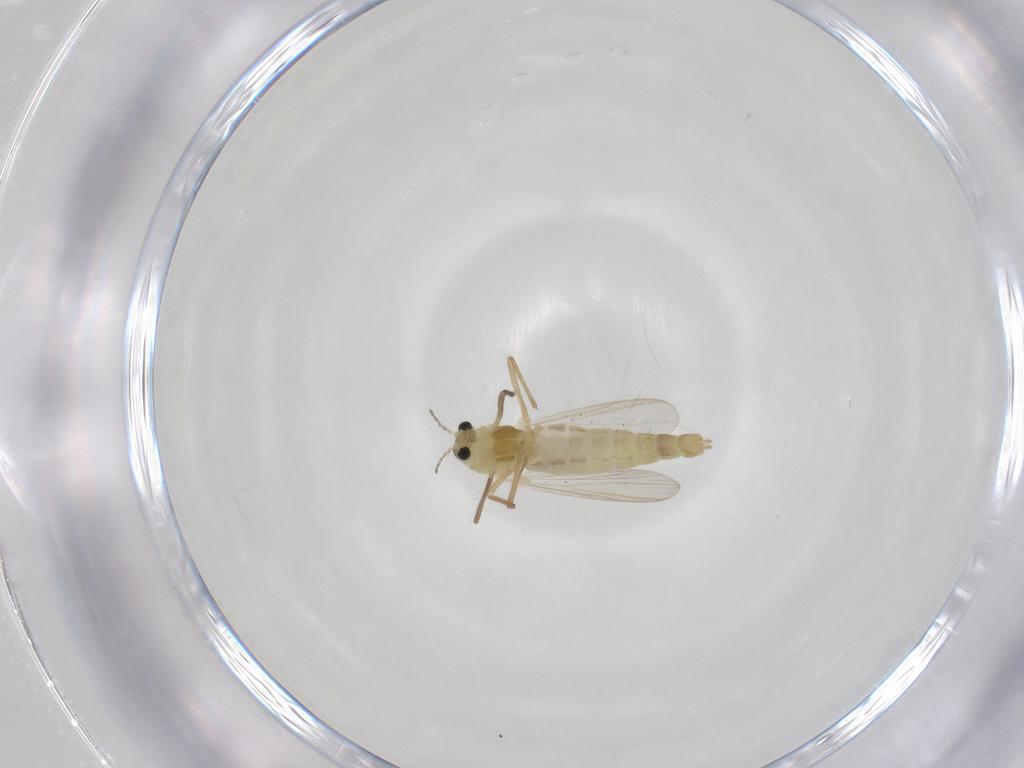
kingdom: Animalia
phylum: Arthropoda
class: Insecta
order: Diptera
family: Chironomidae
